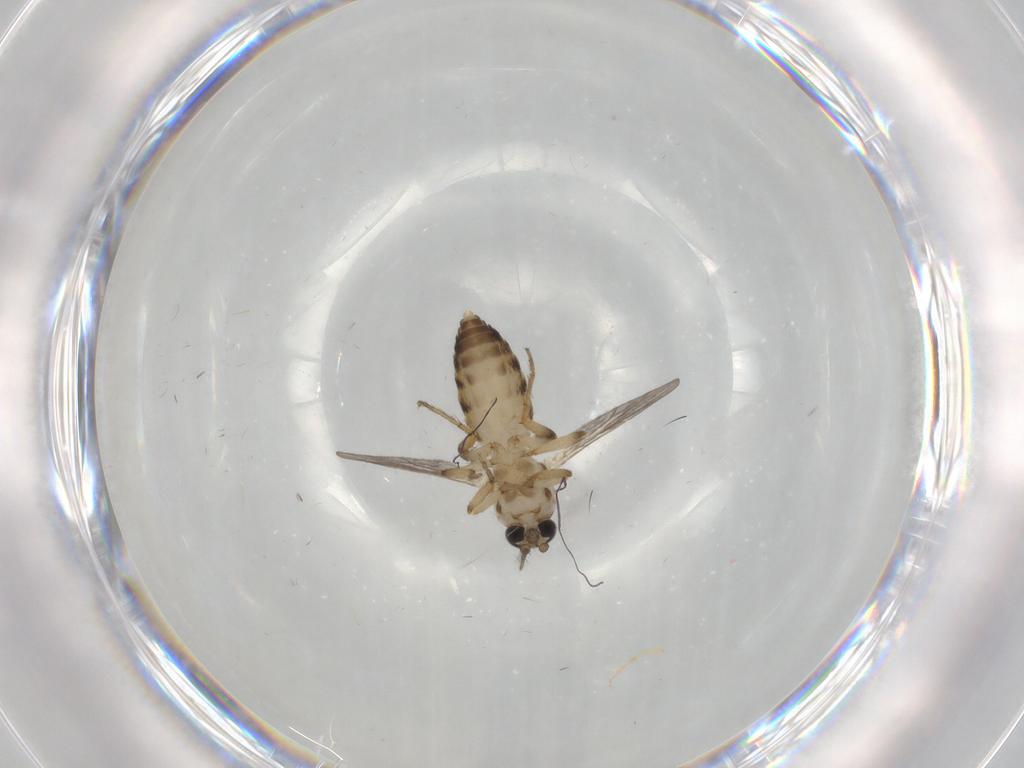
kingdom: Animalia
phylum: Arthropoda
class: Insecta
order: Diptera
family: Ceratopogonidae
